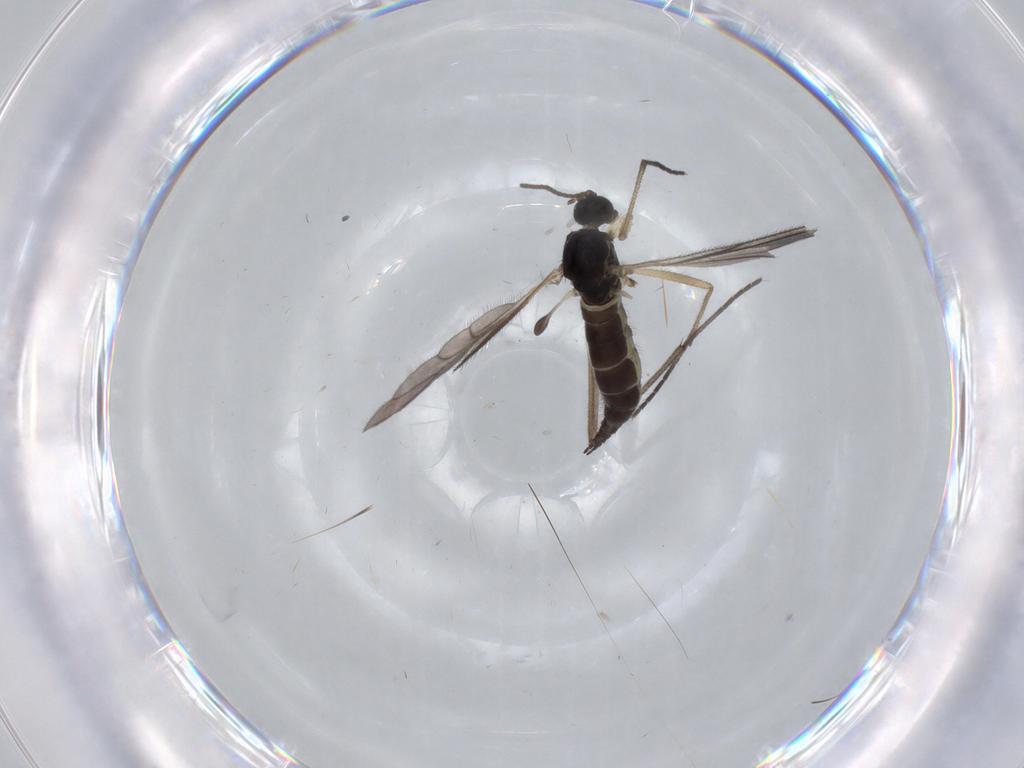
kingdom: Animalia
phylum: Arthropoda
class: Insecta
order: Diptera
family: Sciaridae
